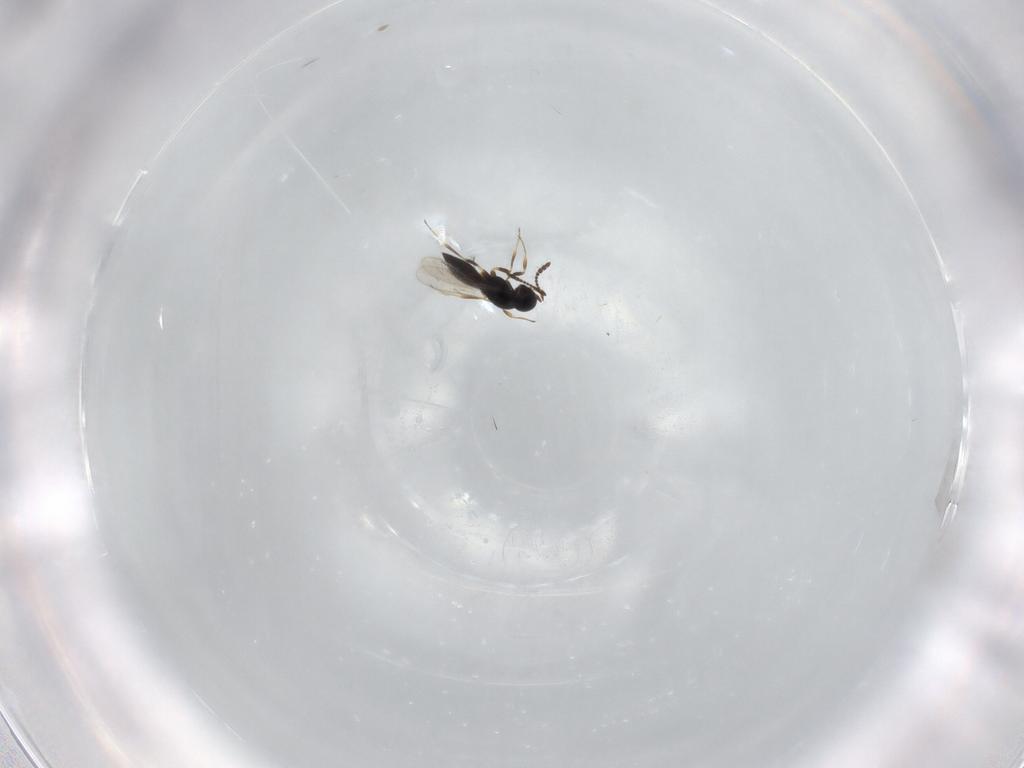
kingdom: Animalia
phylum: Arthropoda
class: Insecta
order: Hymenoptera
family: Scelionidae
